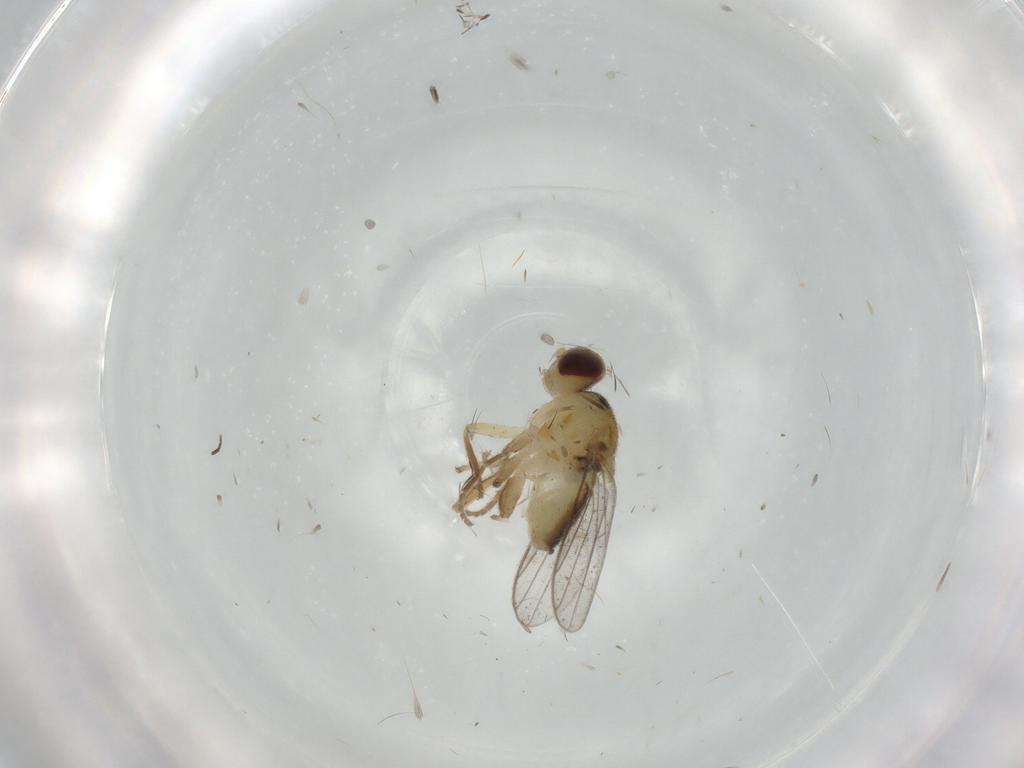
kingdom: Animalia
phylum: Arthropoda
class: Insecta
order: Diptera
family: Chloropidae
